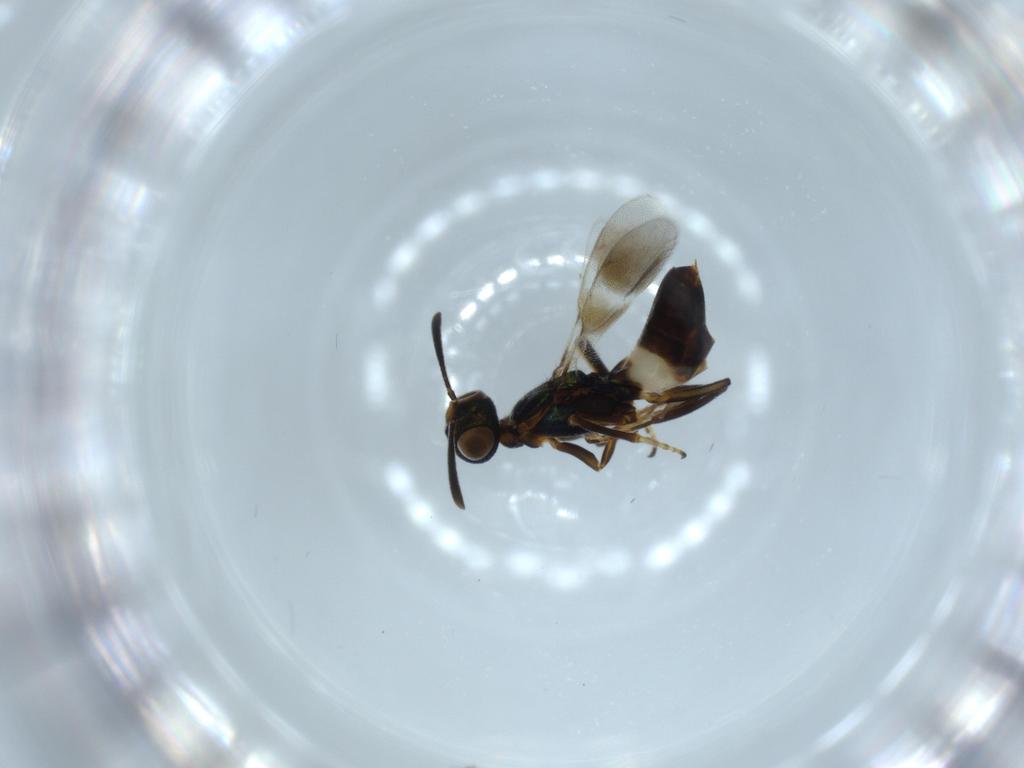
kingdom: Animalia
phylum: Arthropoda
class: Insecta
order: Hymenoptera
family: Eupelmidae
